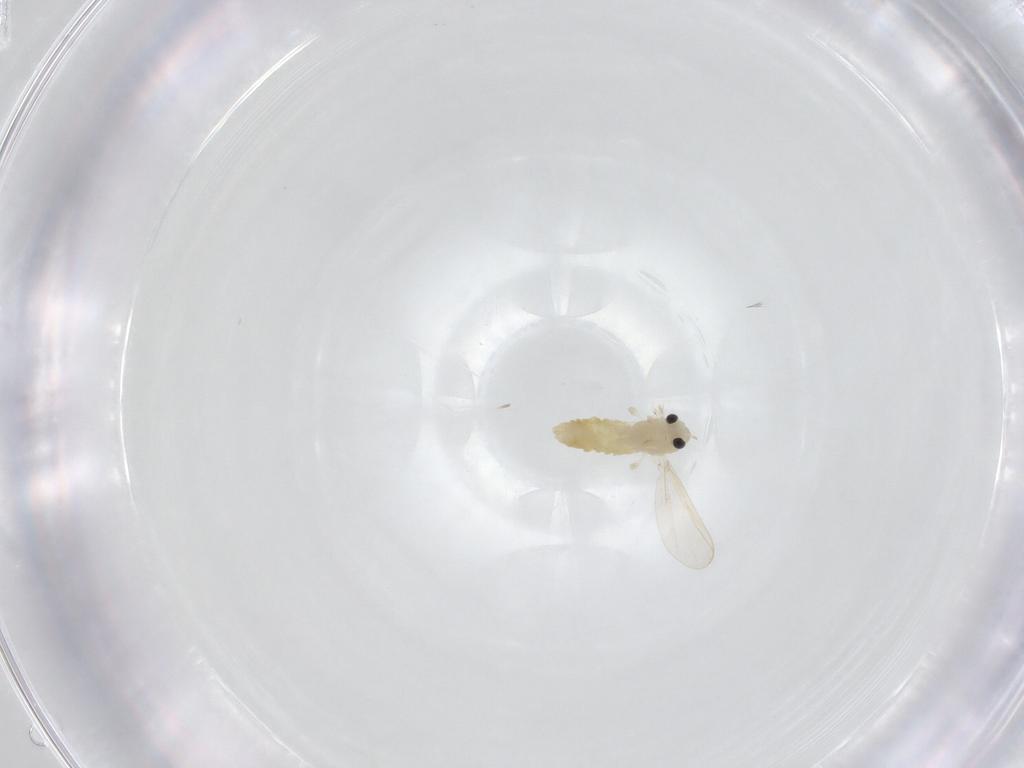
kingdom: Animalia
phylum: Arthropoda
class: Insecta
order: Diptera
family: Chironomidae
